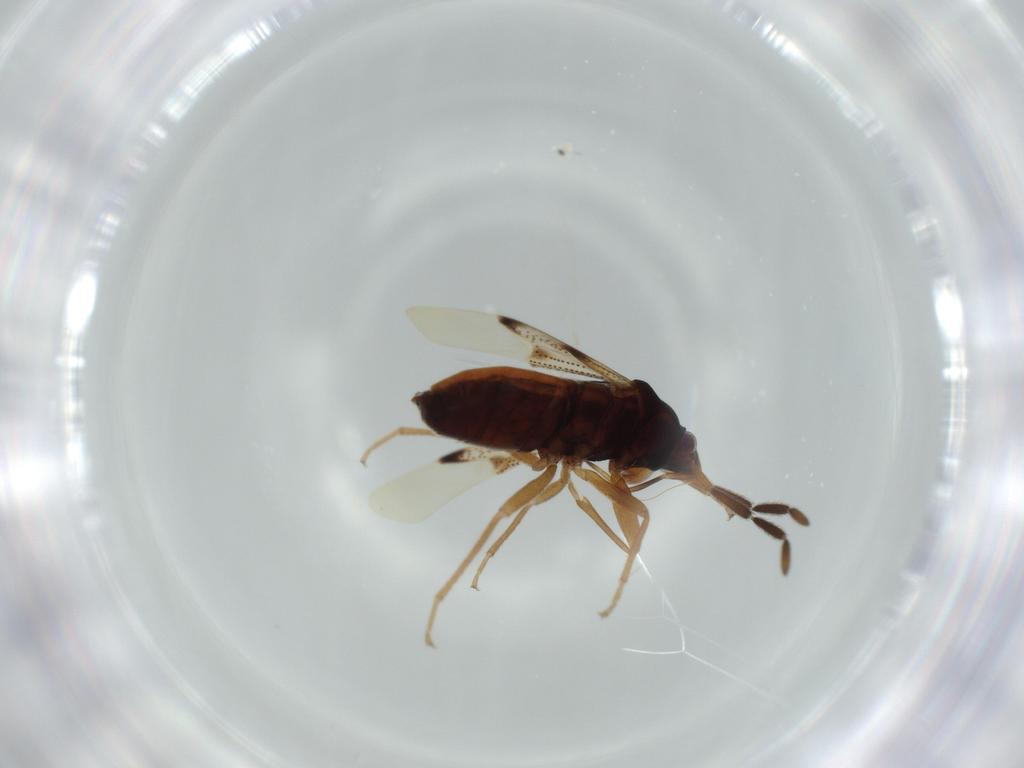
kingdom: Animalia
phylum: Arthropoda
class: Insecta
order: Hemiptera
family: Rhyparochromidae
